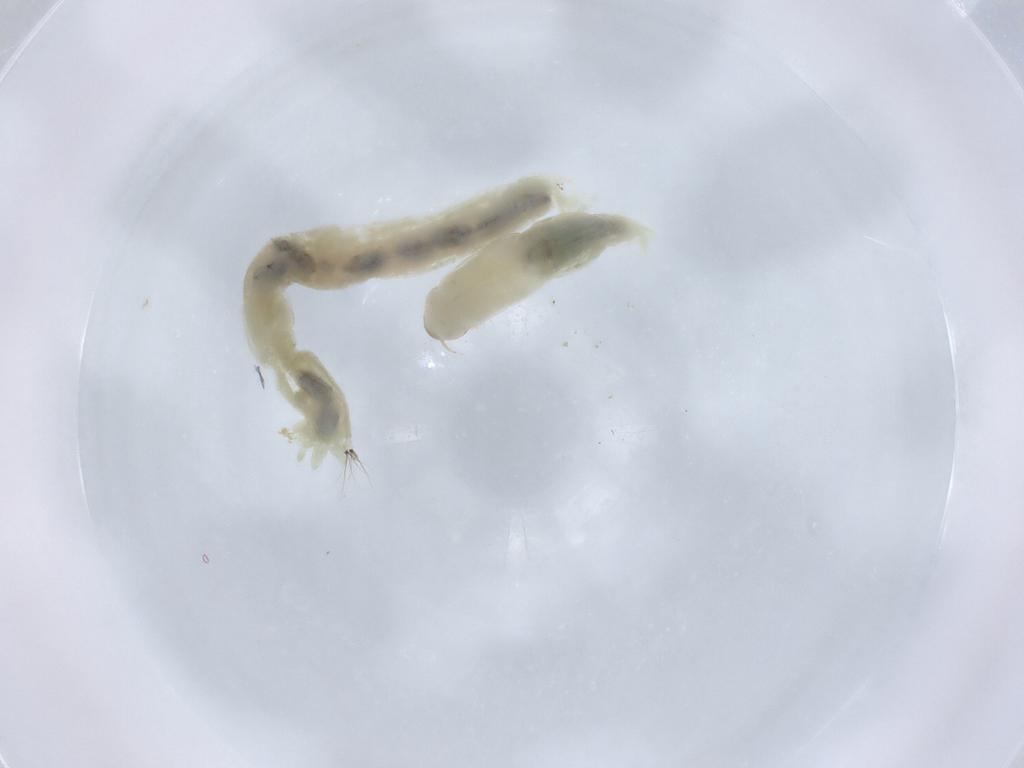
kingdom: Animalia
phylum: Arthropoda
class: Insecta
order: Diptera
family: Chironomidae
